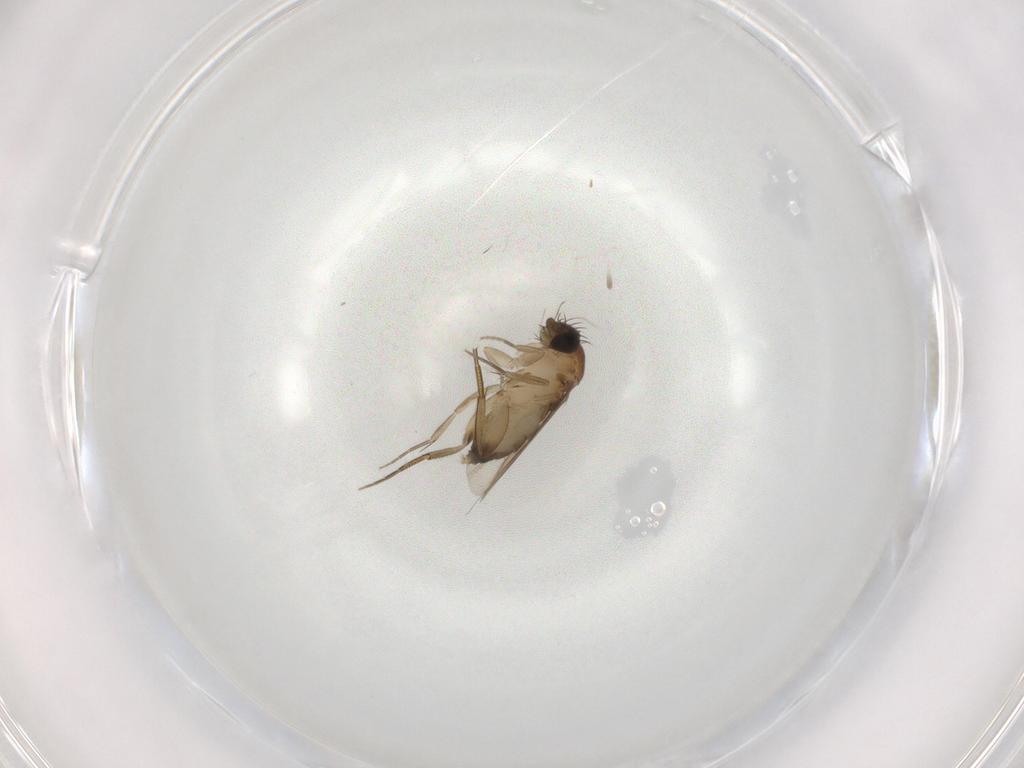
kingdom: Animalia
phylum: Arthropoda
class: Insecta
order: Diptera
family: Phoridae
